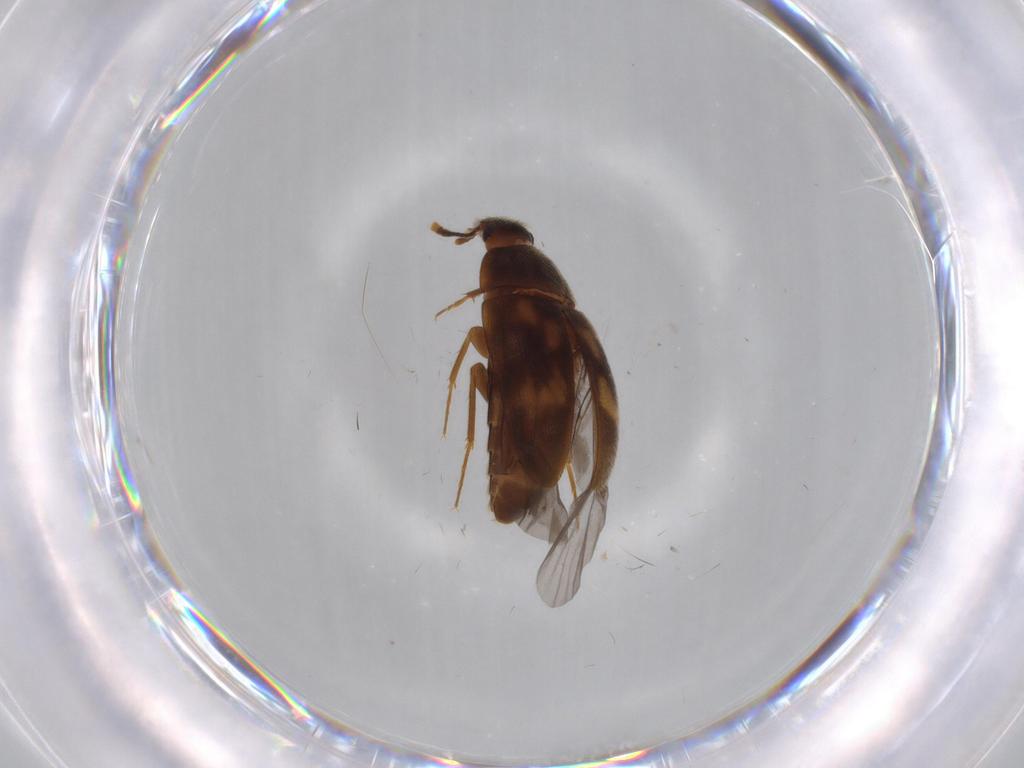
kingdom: Animalia
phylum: Arthropoda
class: Insecta
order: Coleoptera
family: Mycetophagidae
